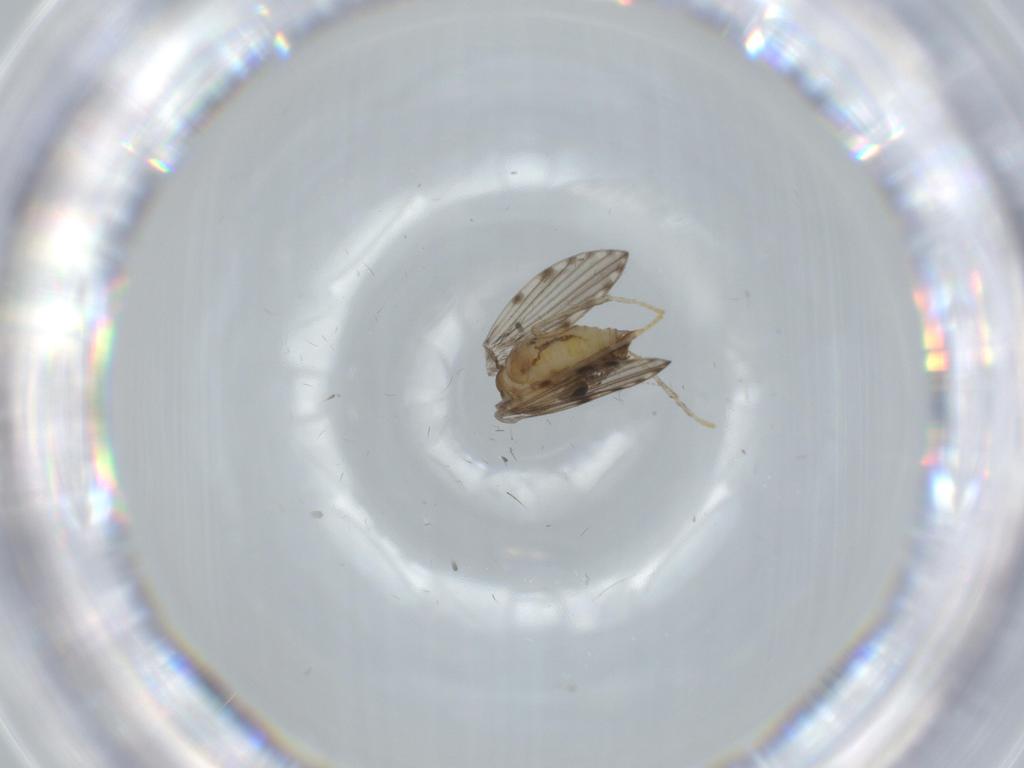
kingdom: Animalia
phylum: Arthropoda
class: Insecta
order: Diptera
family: Psychodidae
